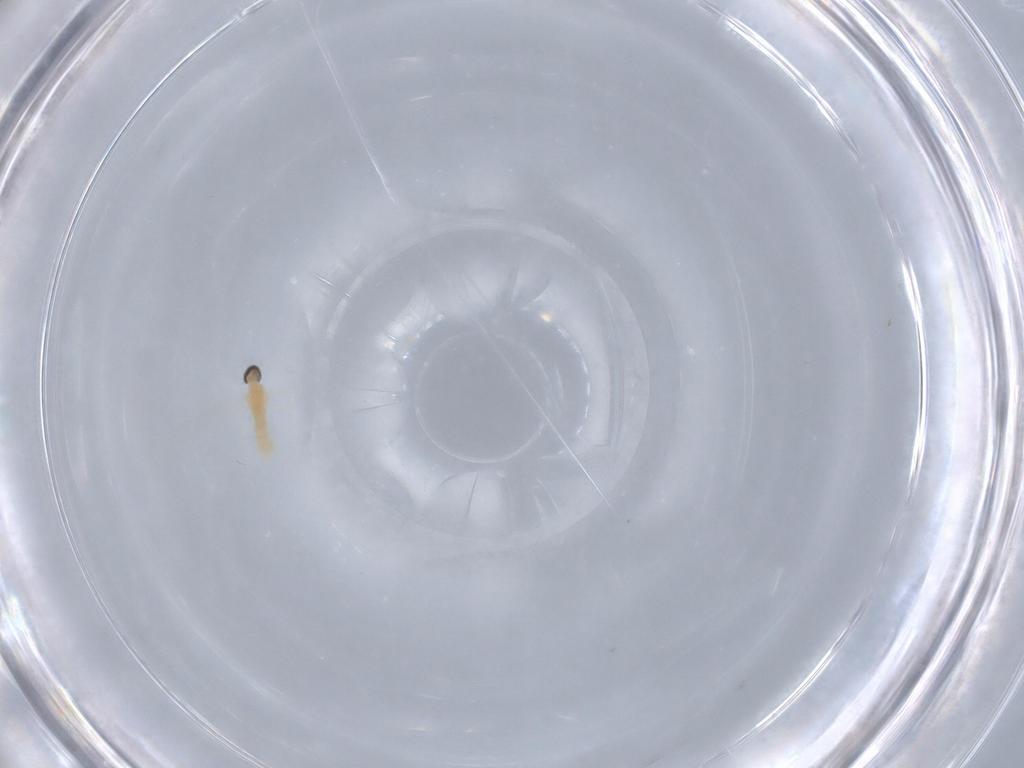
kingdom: Animalia
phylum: Arthropoda
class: Insecta
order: Diptera
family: Cecidomyiidae
